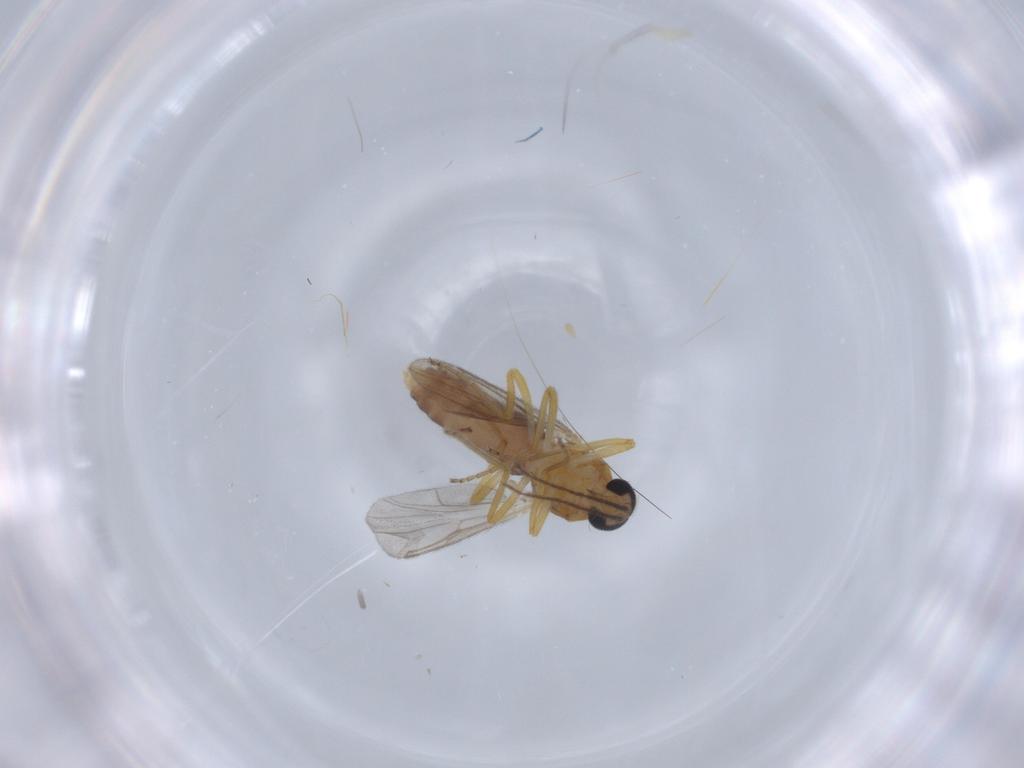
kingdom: Animalia
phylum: Arthropoda
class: Insecta
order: Diptera
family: Ceratopogonidae
